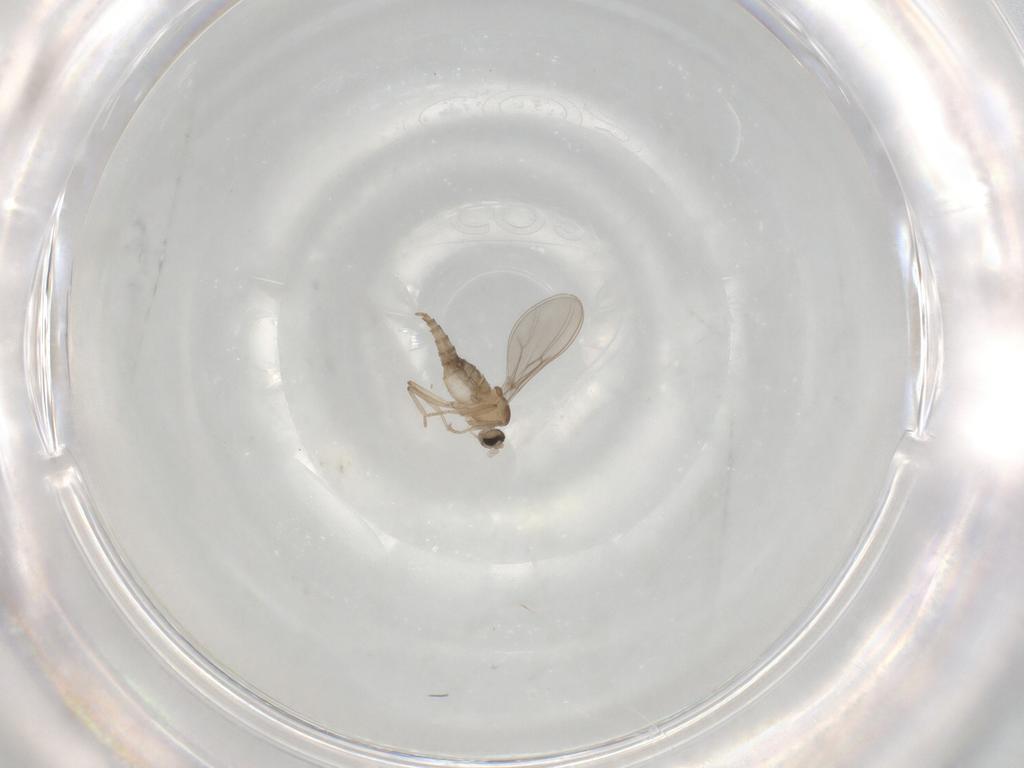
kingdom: Animalia
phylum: Arthropoda
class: Insecta
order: Diptera
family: Cecidomyiidae
